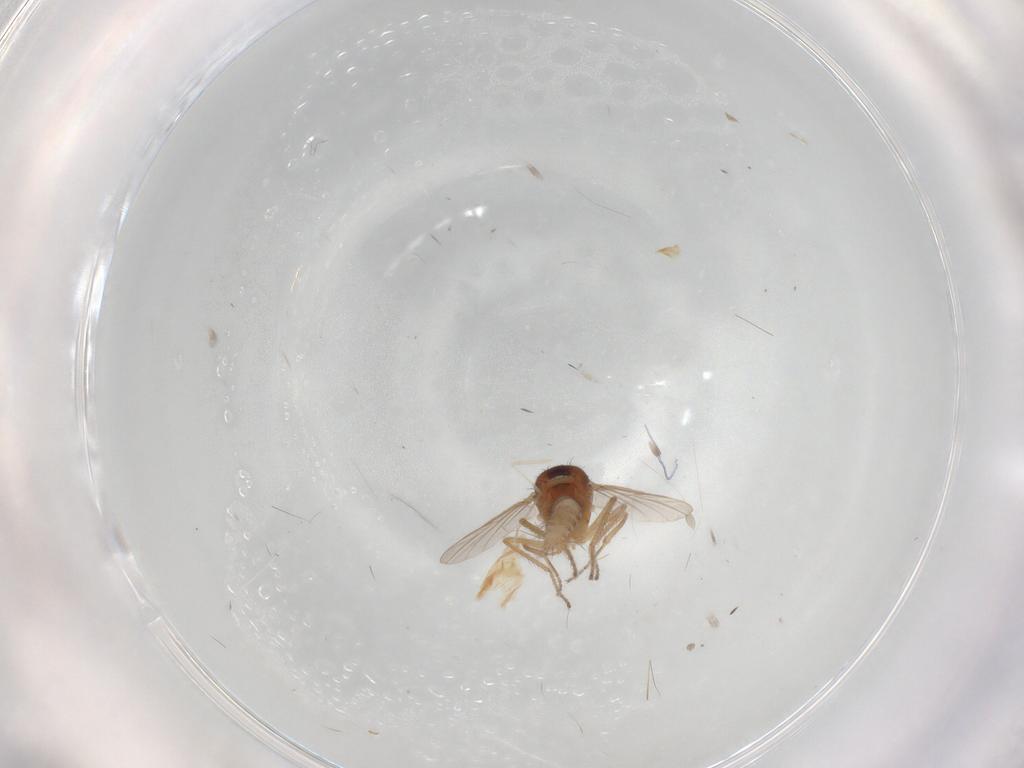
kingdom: Animalia
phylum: Arthropoda
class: Insecta
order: Diptera
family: Ceratopogonidae
